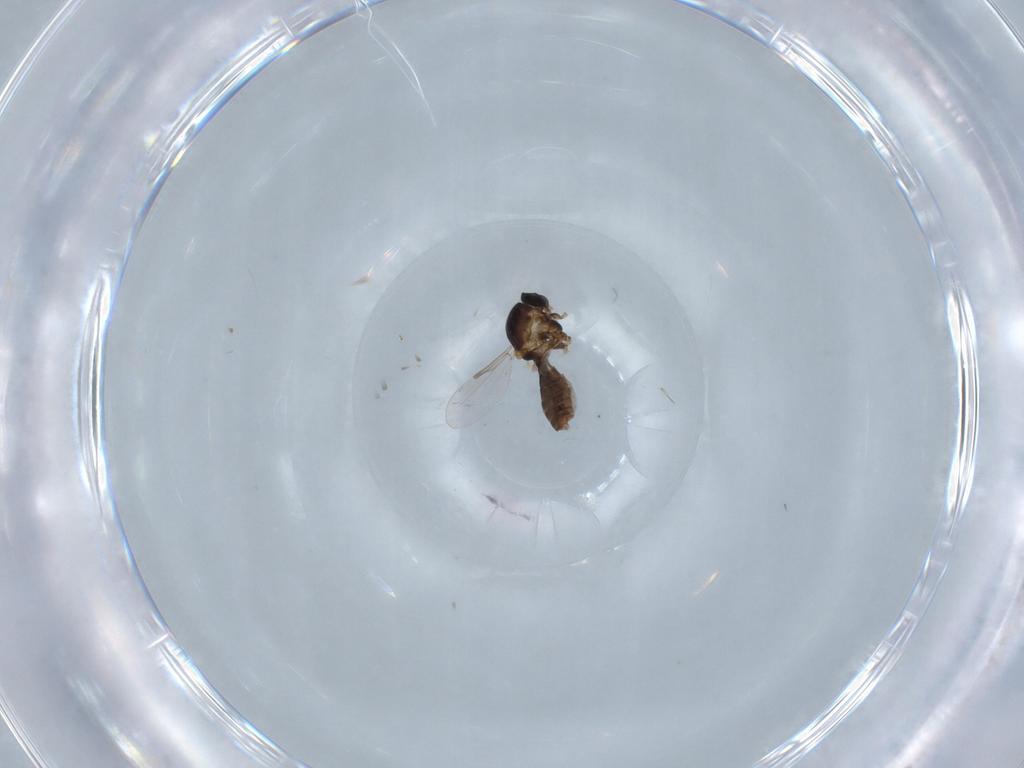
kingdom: Animalia
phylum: Arthropoda
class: Insecta
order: Diptera
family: Ceratopogonidae
